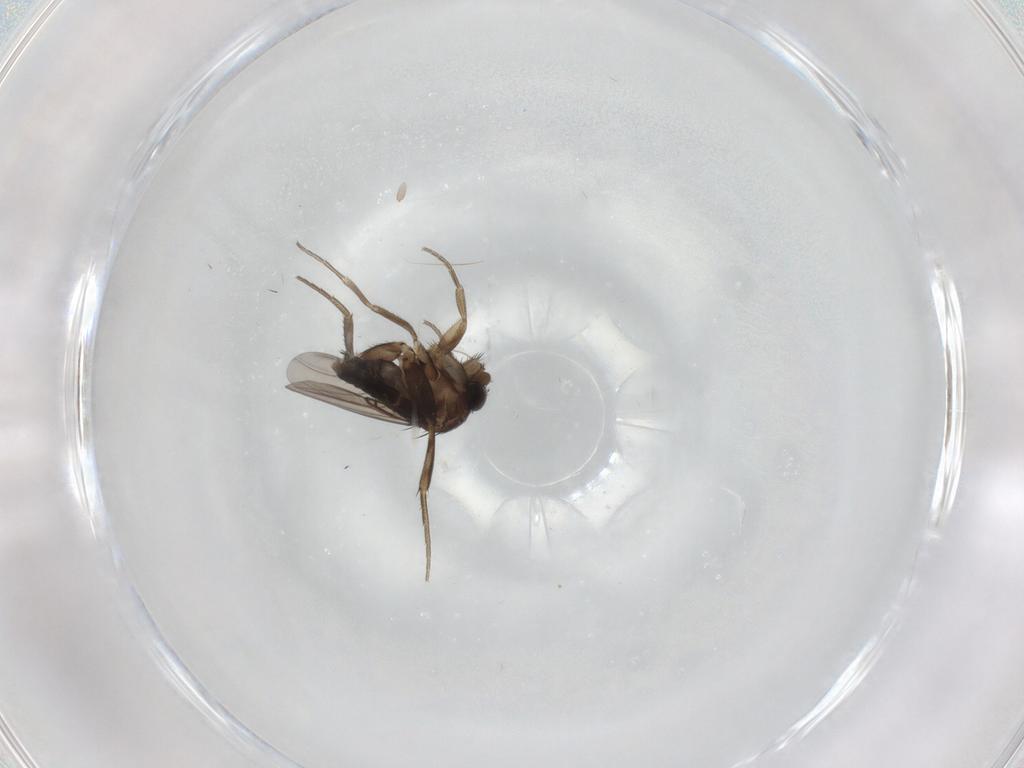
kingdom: Animalia
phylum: Arthropoda
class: Insecta
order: Diptera
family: Phoridae
